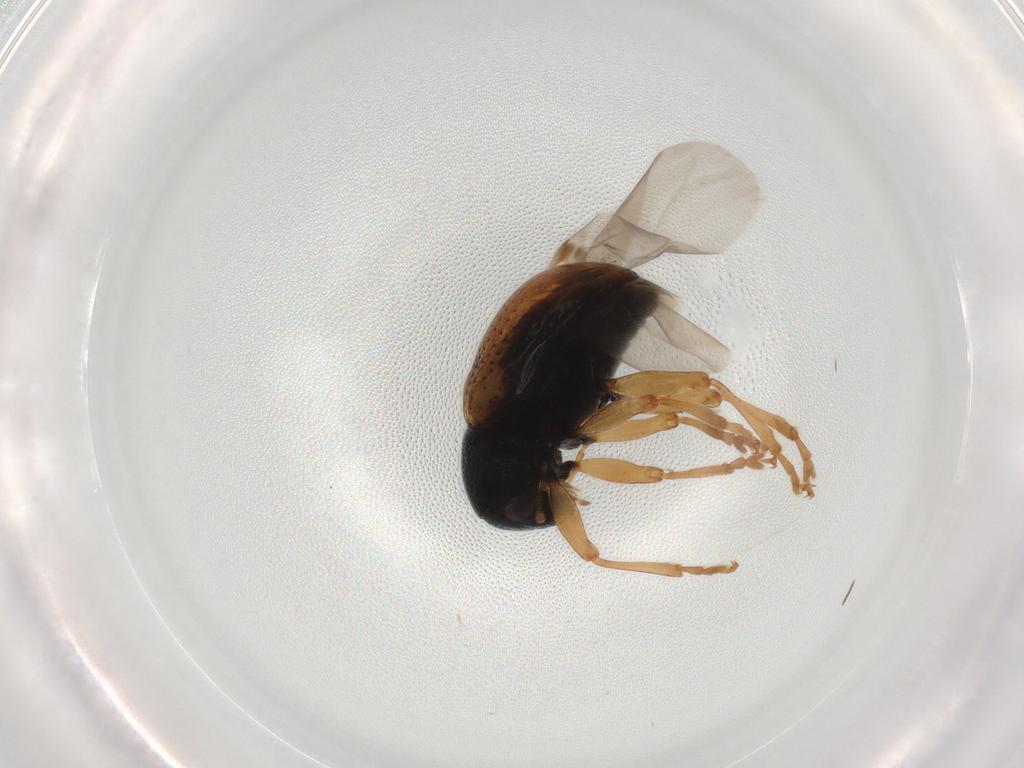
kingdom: Animalia
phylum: Arthropoda
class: Insecta
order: Coleoptera
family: Chrysomelidae
